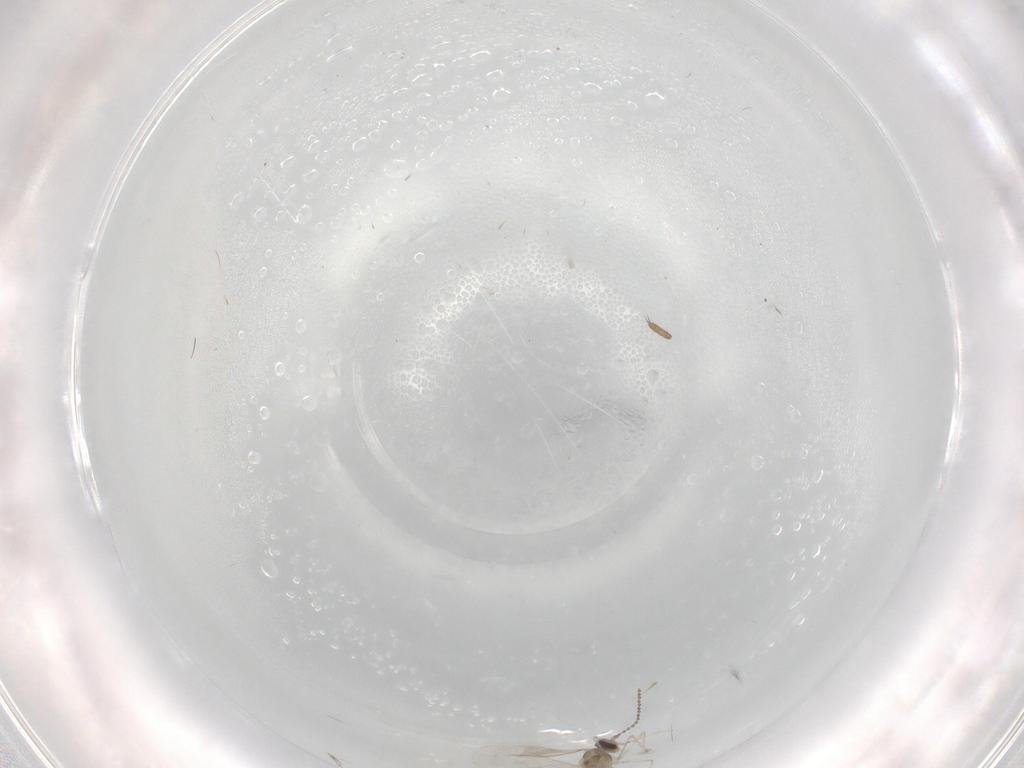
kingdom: Animalia
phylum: Arthropoda
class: Insecta
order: Diptera
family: Cecidomyiidae
